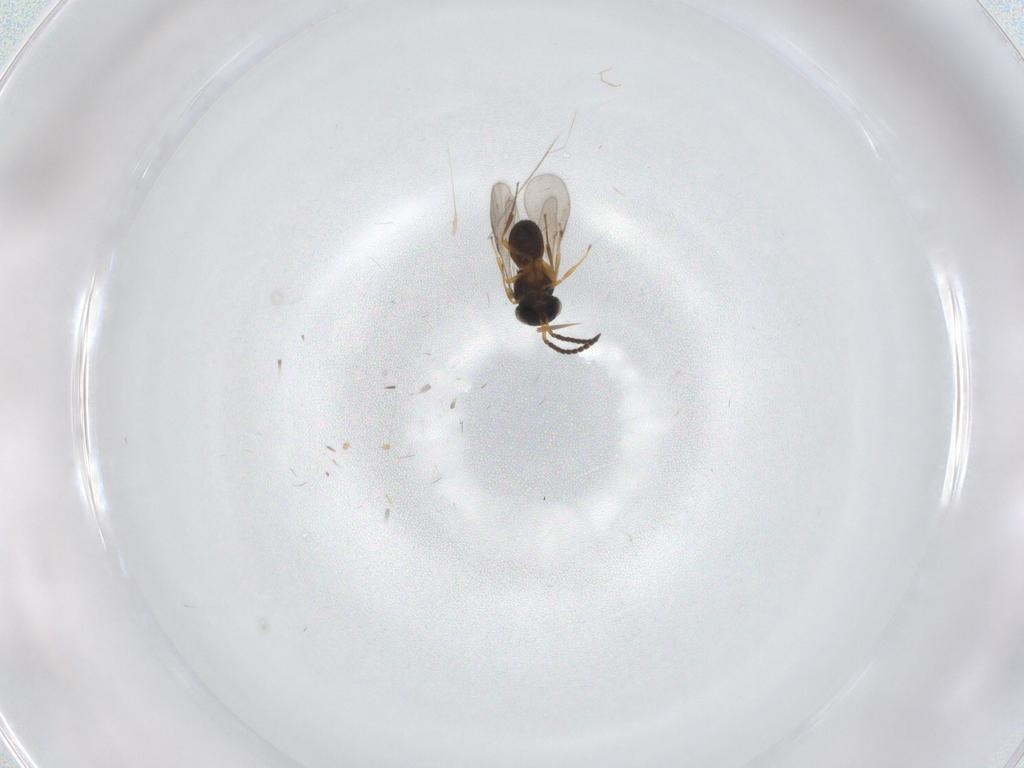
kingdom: Animalia
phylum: Arthropoda
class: Insecta
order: Hymenoptera
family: Scelionidae
